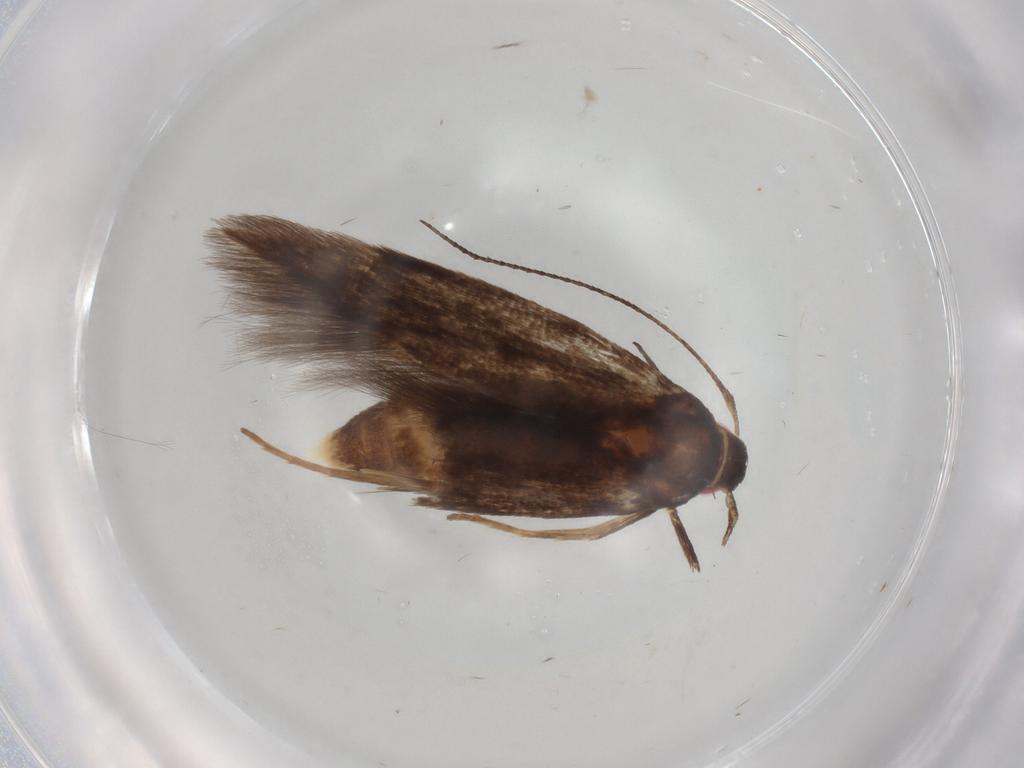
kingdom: Animalia
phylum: Arthropoda
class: Insecta
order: Lepidoptera
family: Cosmopterigidae
